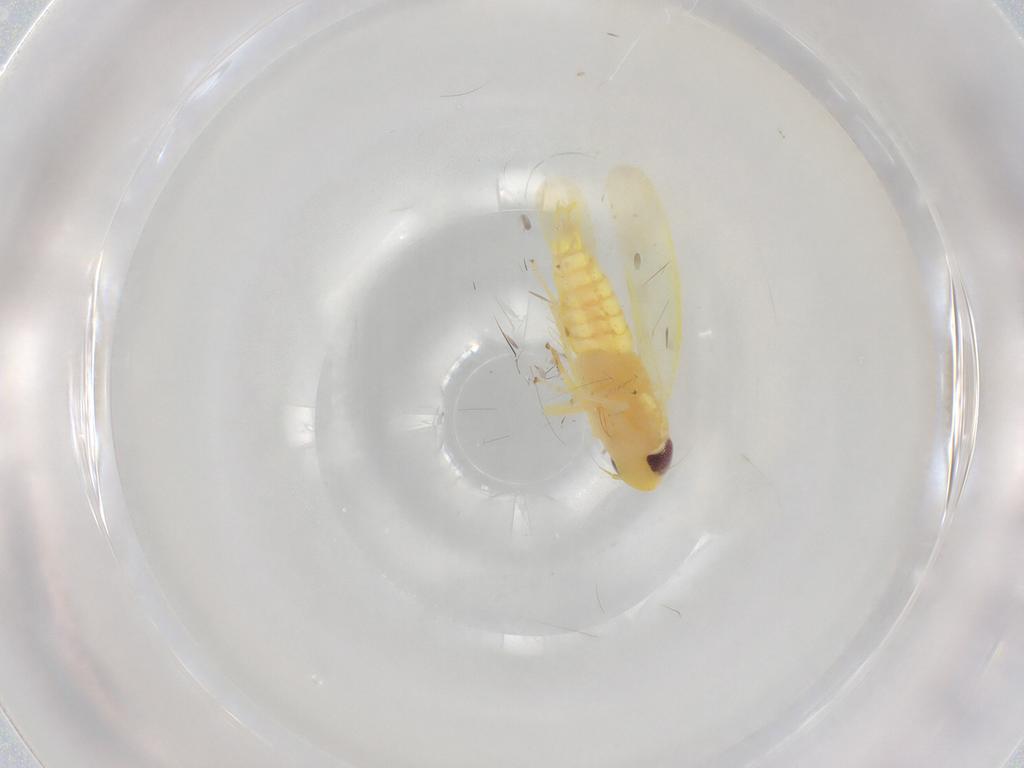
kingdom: Animalia
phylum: Arthropoda
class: Insecta
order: Hemiptera
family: Cicadellidae
